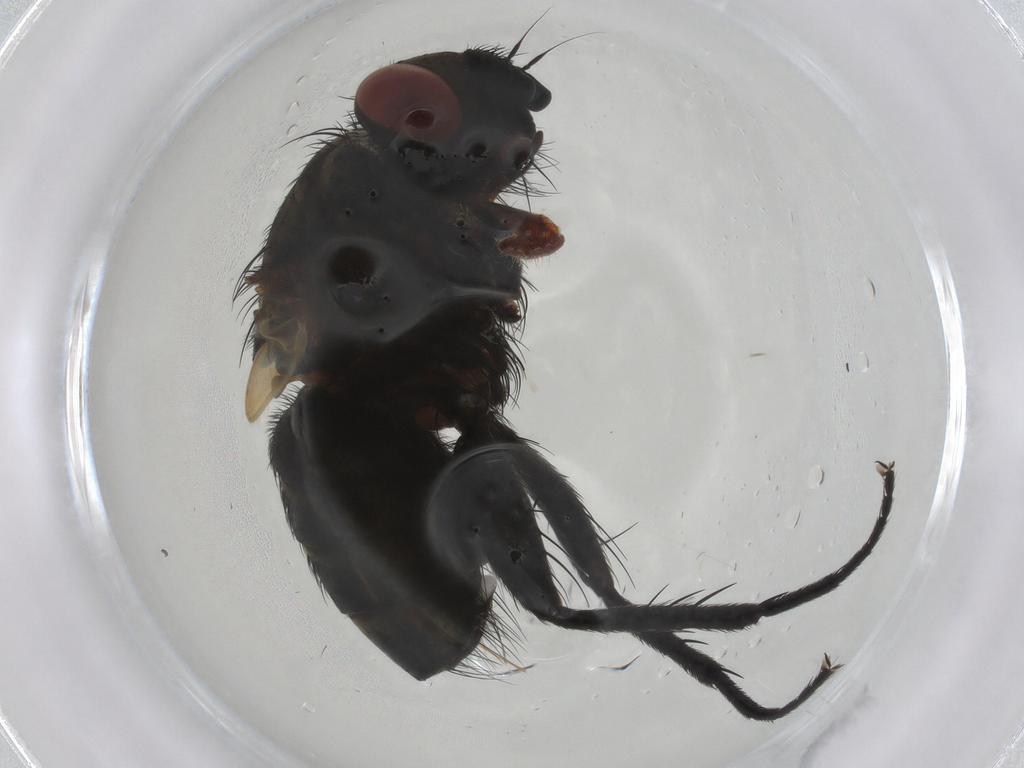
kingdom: Animalia
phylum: Arthropoda
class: Insecta
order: Diptera
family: Tachinidae
